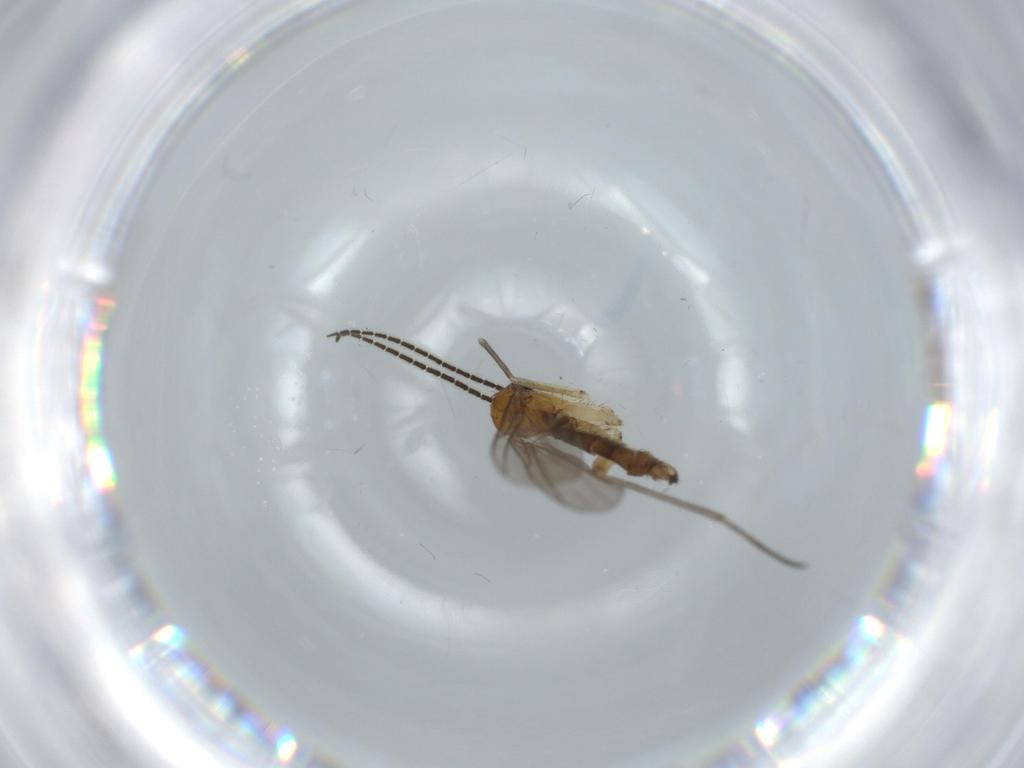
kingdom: Animalia
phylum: Arthropoda
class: Insecta
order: Diptera
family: Sciaridae
